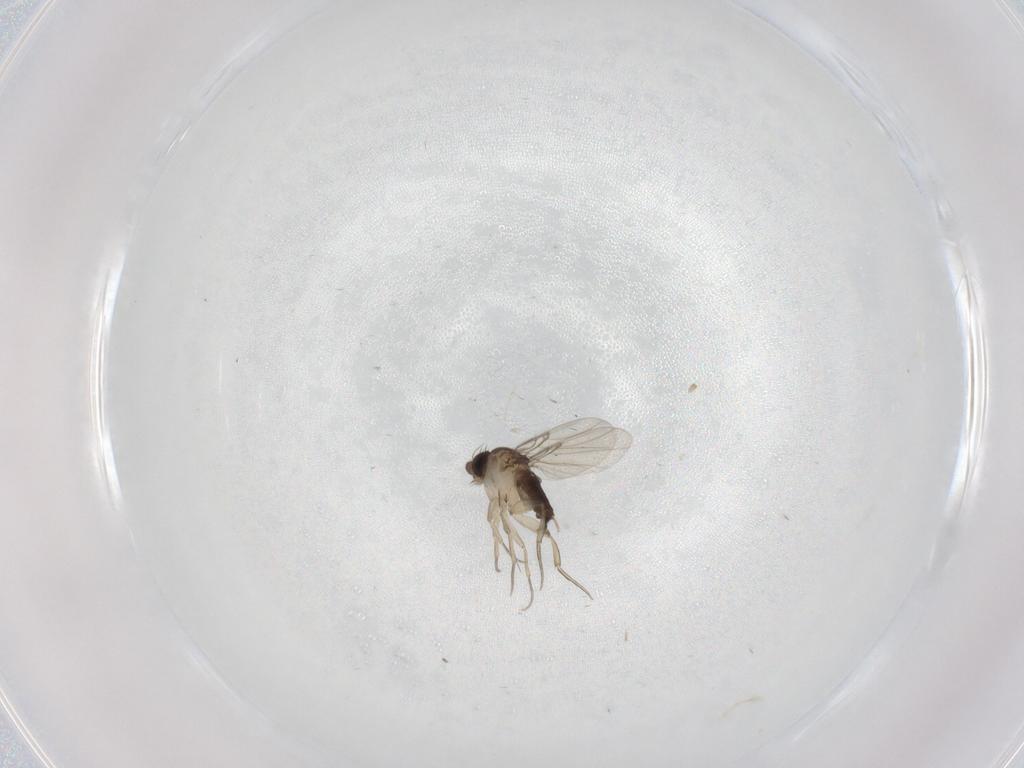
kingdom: Animalia
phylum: Arthropoda
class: Insecta
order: Diptera
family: Phoridae
